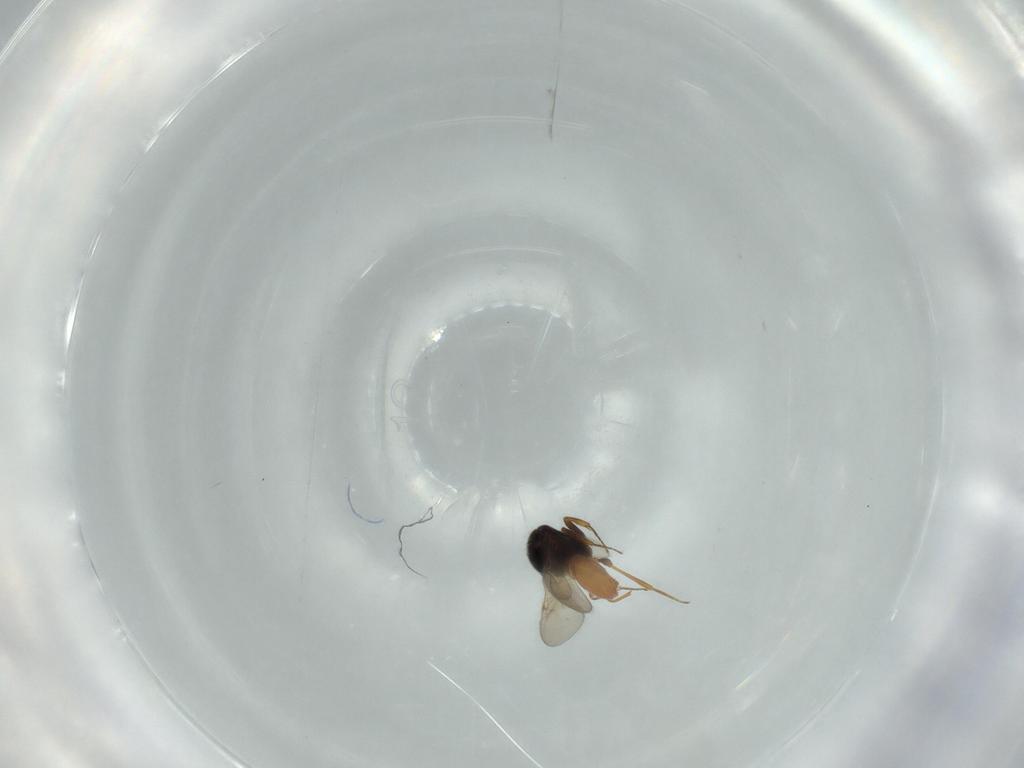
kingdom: Animalia
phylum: Arthropoda
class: Insecta
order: Hymenoptera
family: Scelionidae
